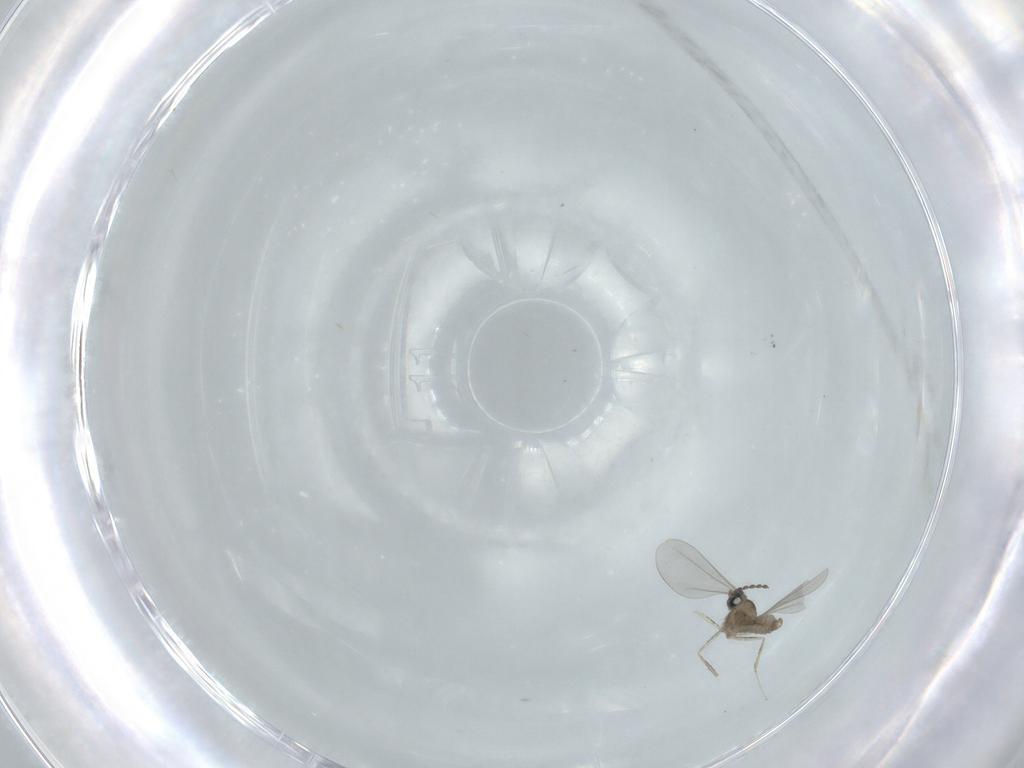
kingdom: Animalia
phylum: Arthropoda
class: Insecta
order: Diptera
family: Ceratopogonidae
